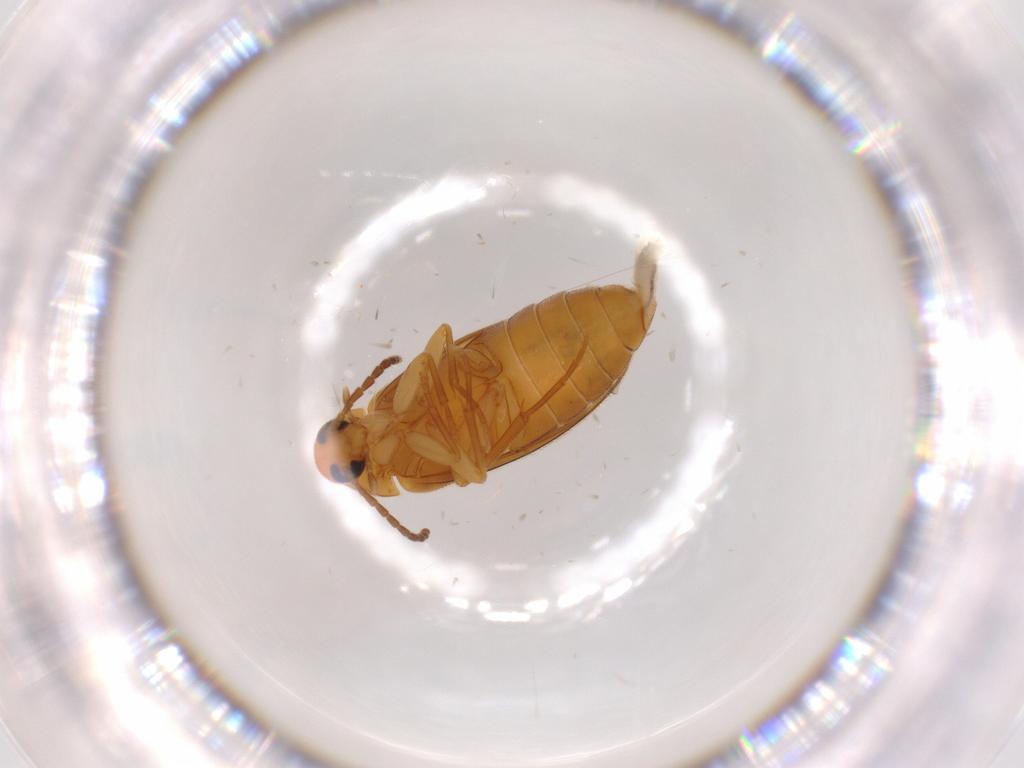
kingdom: Animalia
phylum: Arthropoda
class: Insecta
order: Coleoptera
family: Scraptiidae
